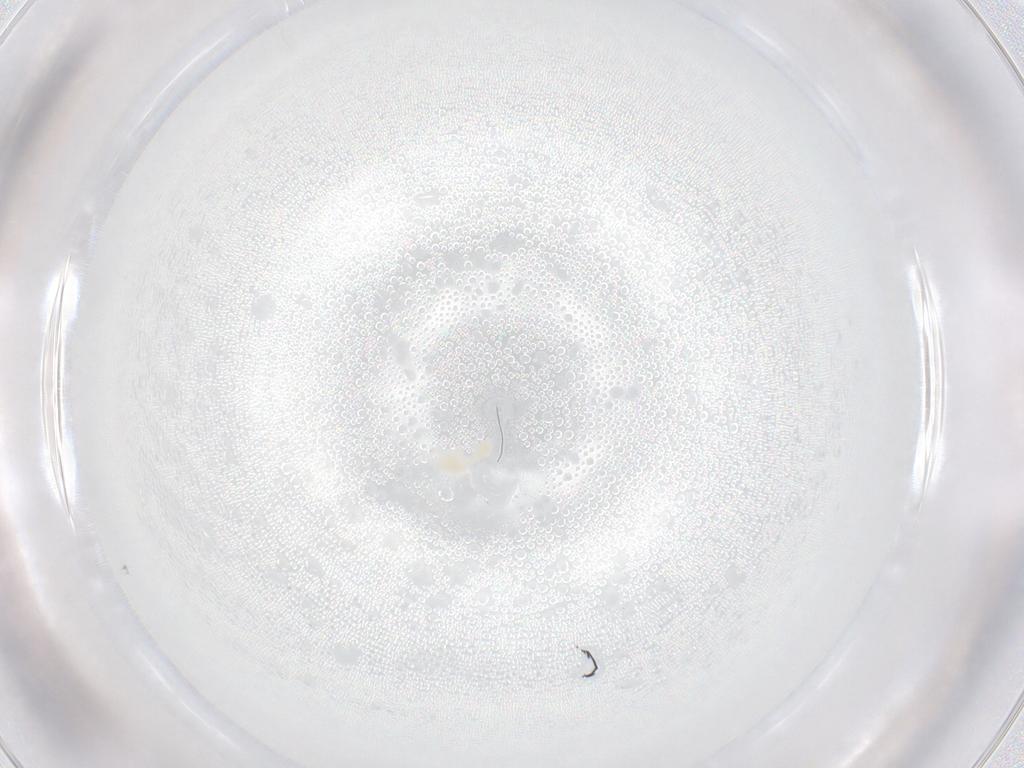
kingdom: Animalia
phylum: Arthropoda
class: Arachnida
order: Trombidiformes
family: Eupodidae
